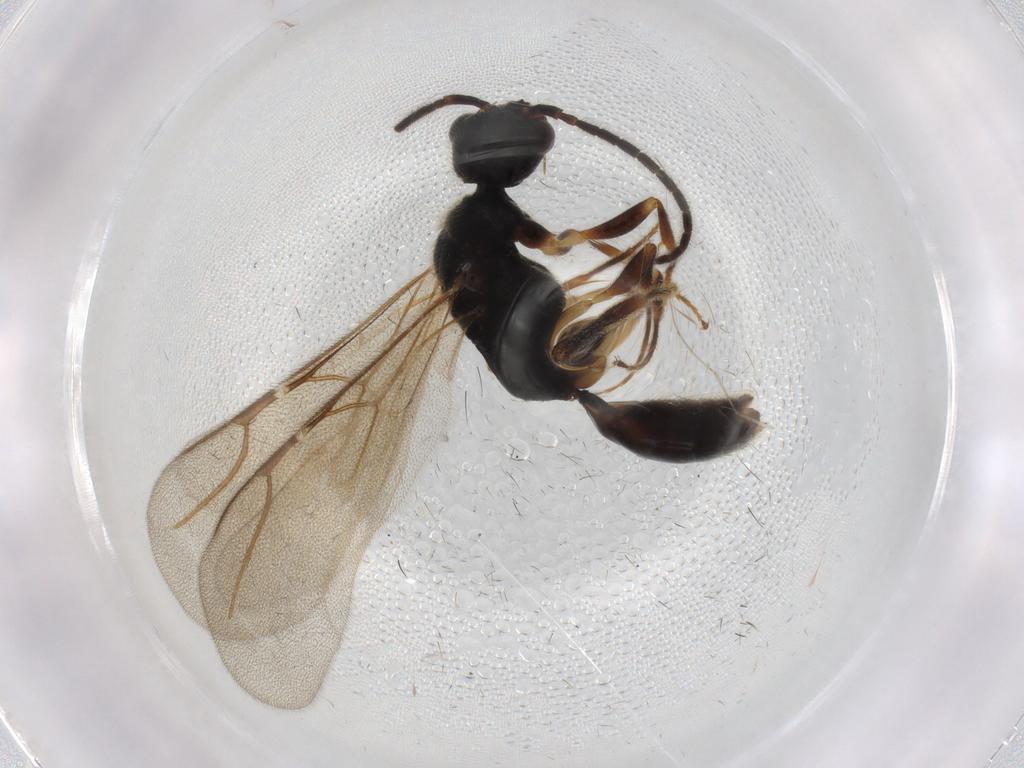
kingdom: Animalia
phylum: Arthropoda
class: Insecta
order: Hymenoptera
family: Bethylidae
